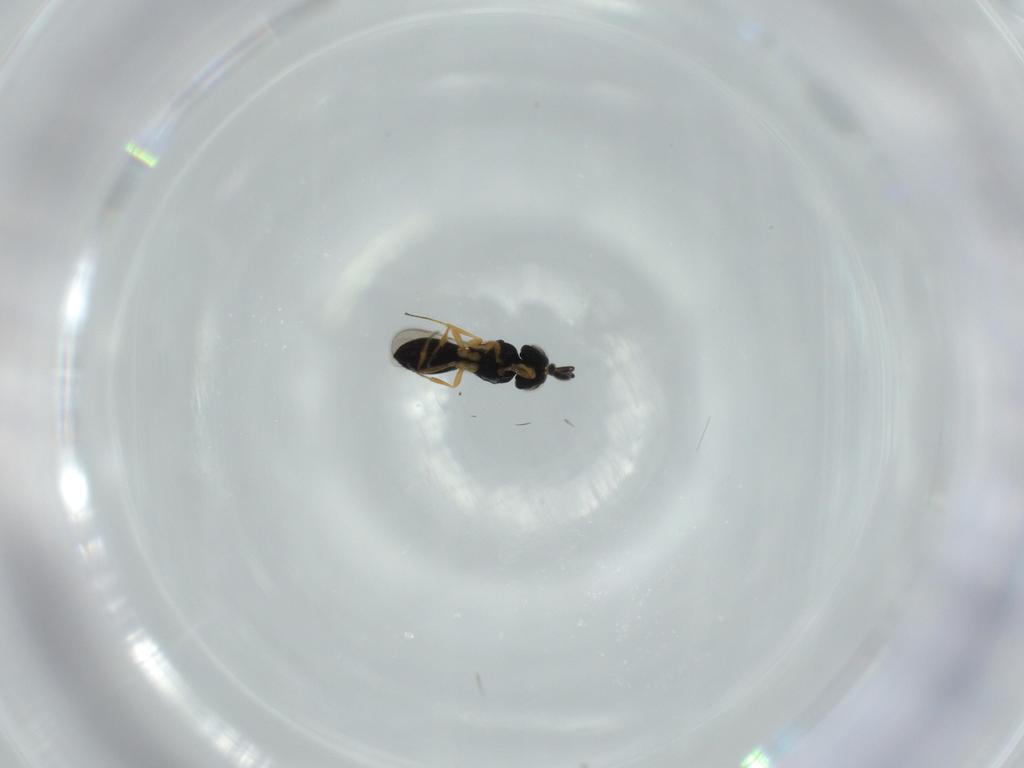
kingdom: Animalia
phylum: Arthropoda
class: Insecta
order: Hymenoptera
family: Scelionidae
